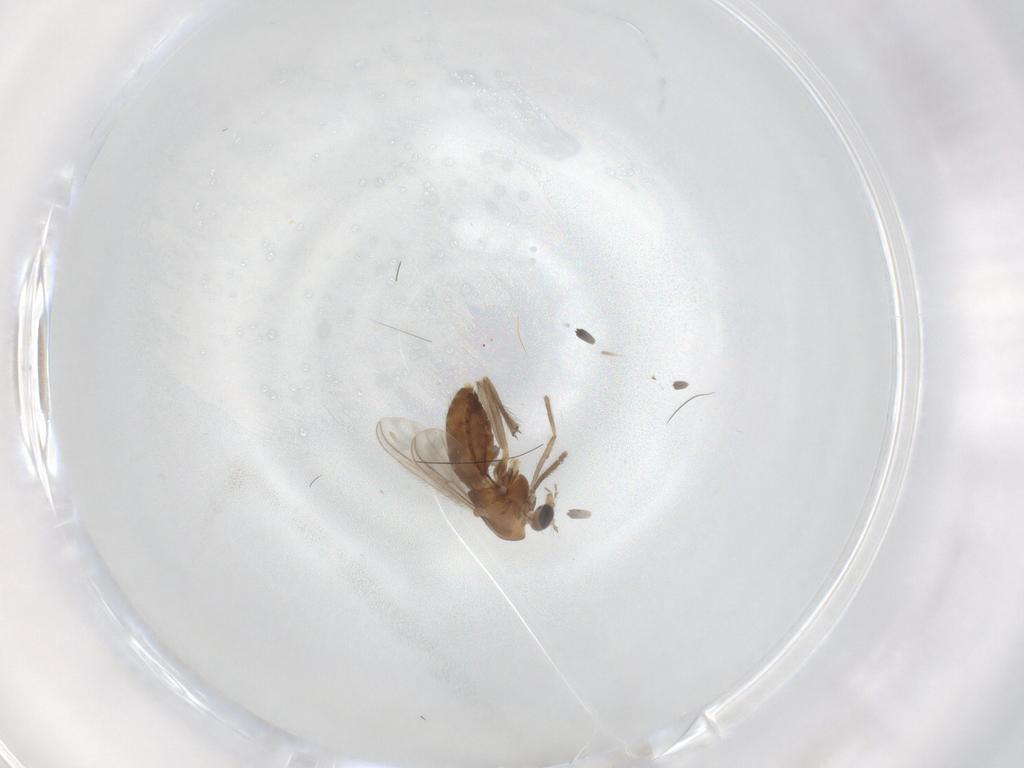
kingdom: Animalia
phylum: Arthropoda
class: Insecta
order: Diptera
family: Chironomidae
